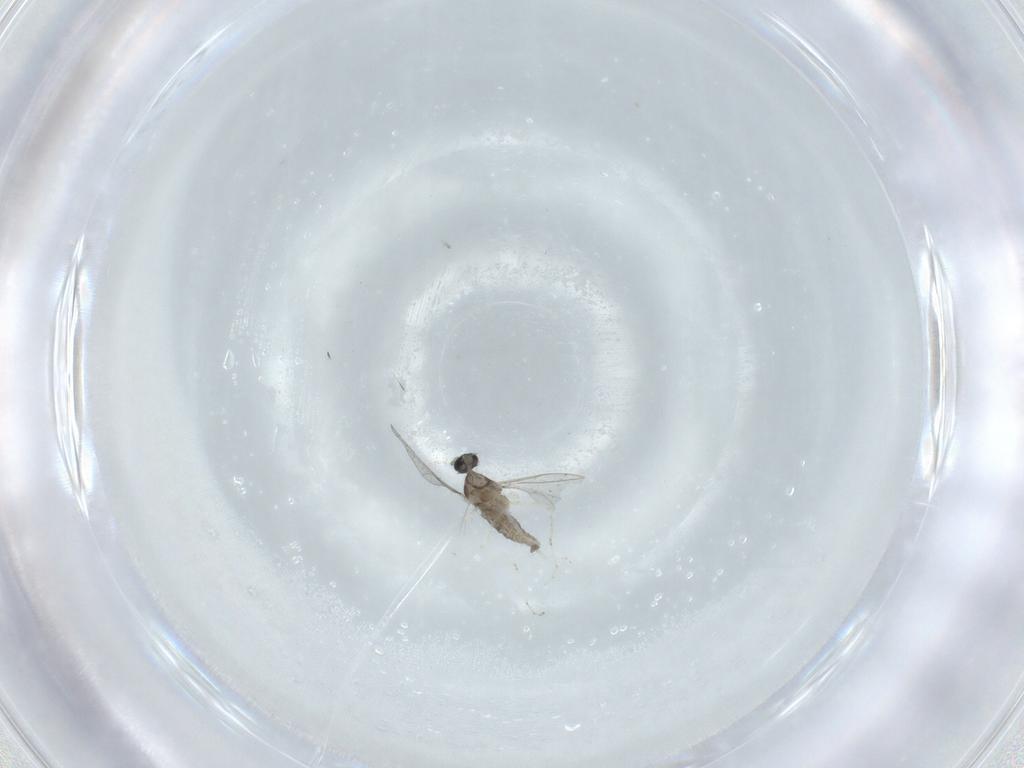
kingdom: Animalia
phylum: Arthropoda
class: Insecta
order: Diptera
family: Cecidomyiidae
